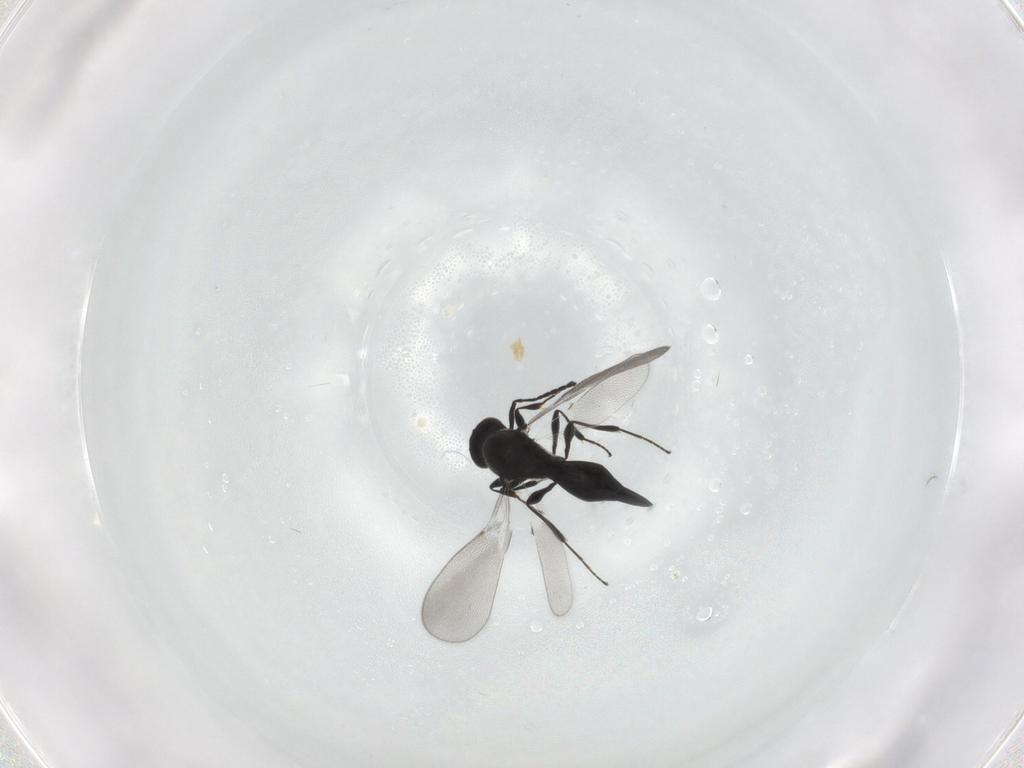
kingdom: Animalia
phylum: Arthropoda
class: Insecta
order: Diptera
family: Mythicomyiidae
